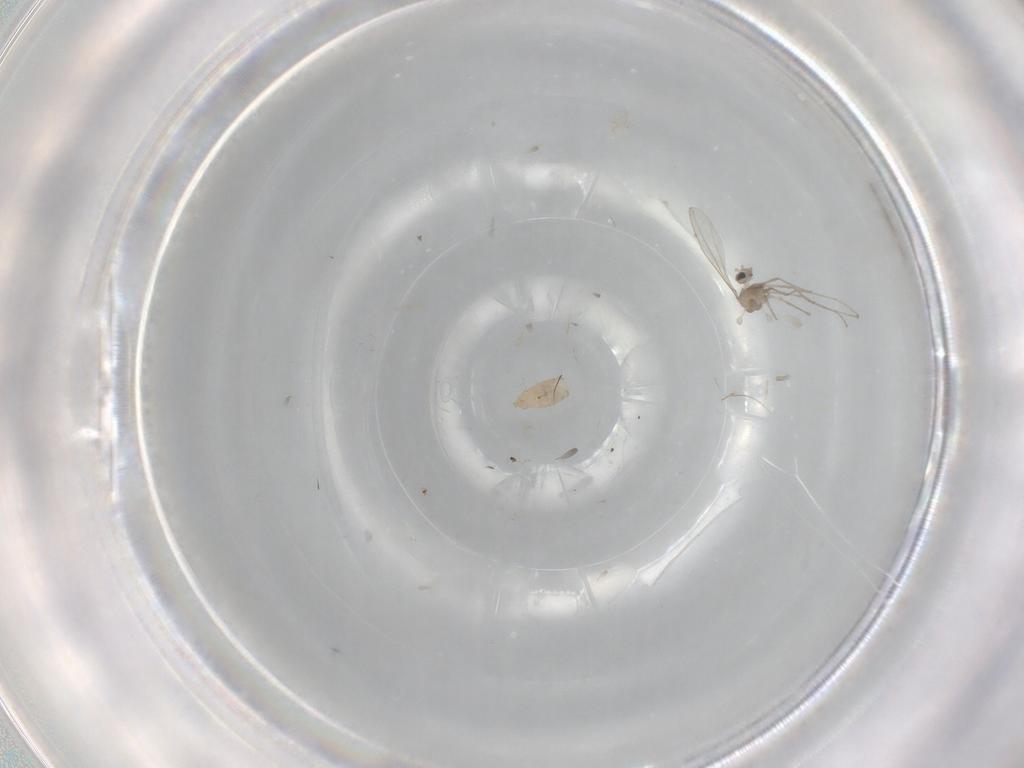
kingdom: Animalia
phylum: Arthropoda
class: Insecta
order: Diptera
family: Cecidomyiidae
